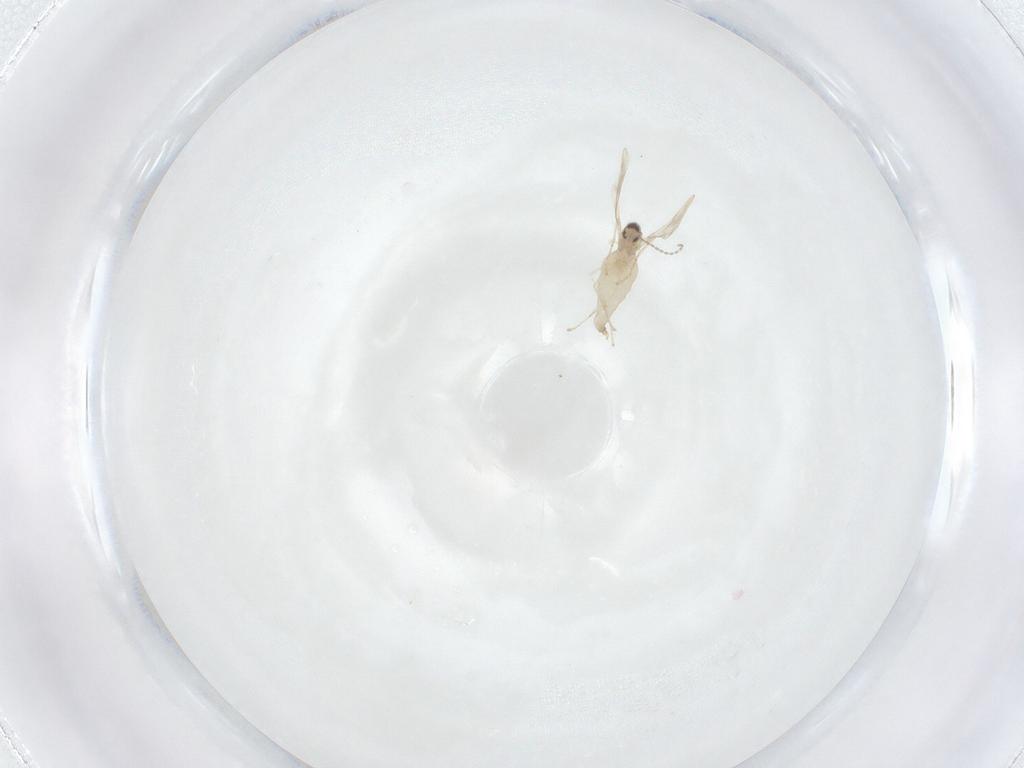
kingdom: Animalia
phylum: Arthropoda
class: Insecta
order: Diptera
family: Cecidomyiidae
